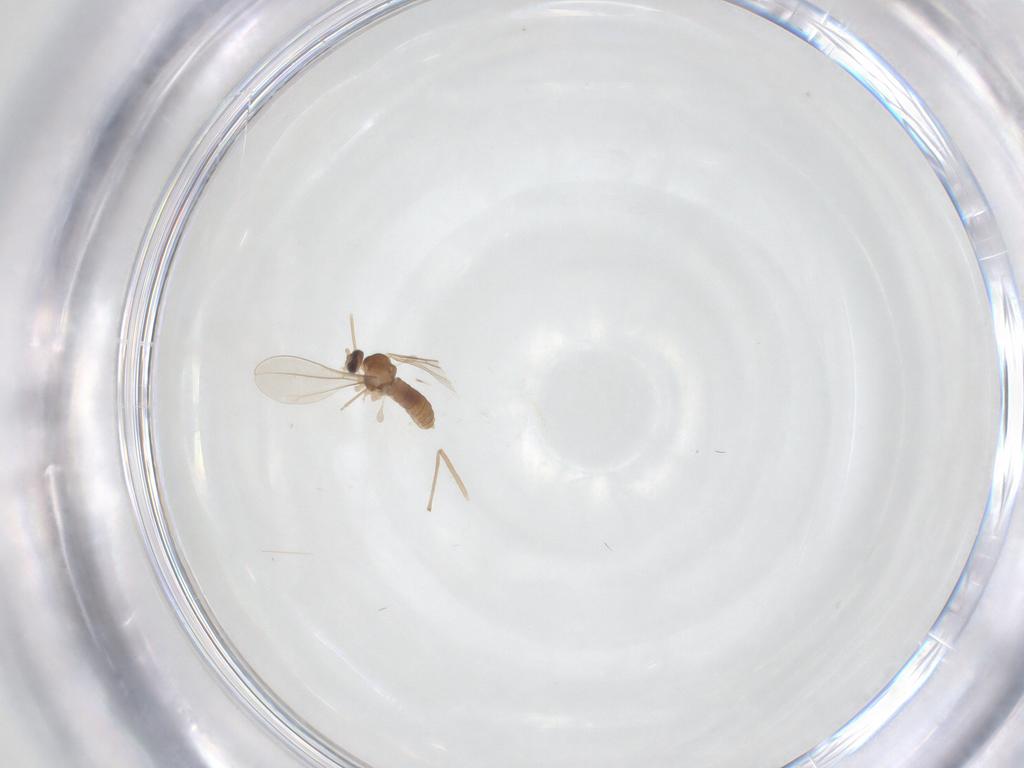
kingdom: Animalia
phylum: Arthropoda
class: Insecta
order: Diptera
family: Cecidomyiidae
